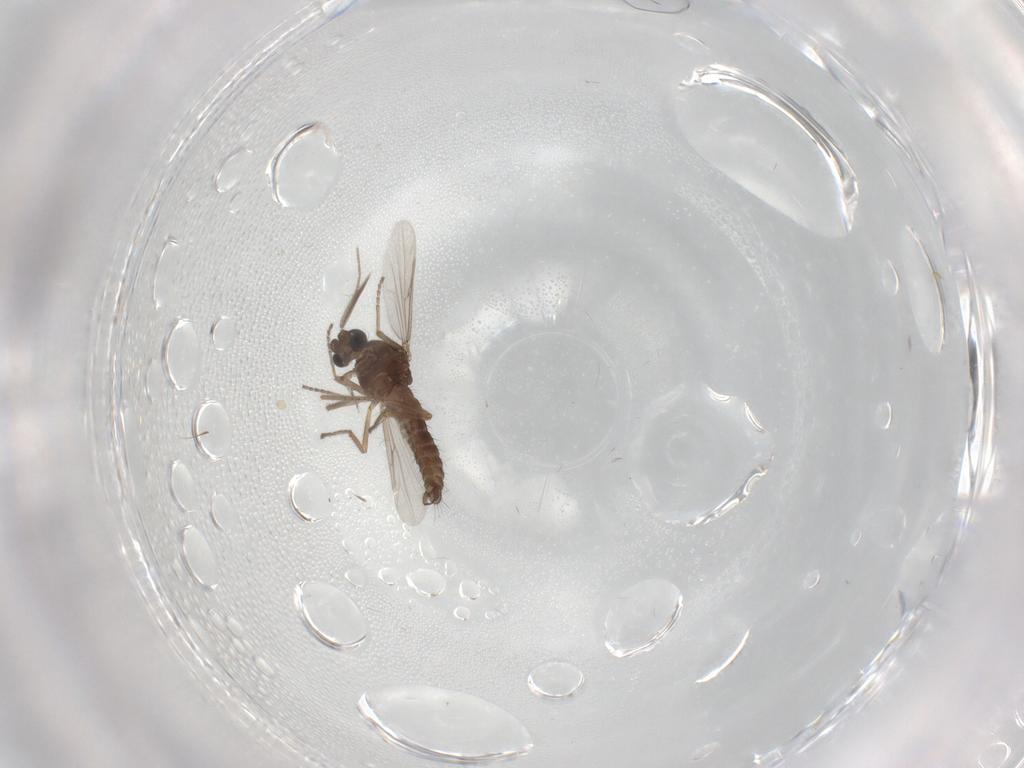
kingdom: Animalia
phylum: Arthropoda
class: Insecta
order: Diptera
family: Ceratopogonidae
